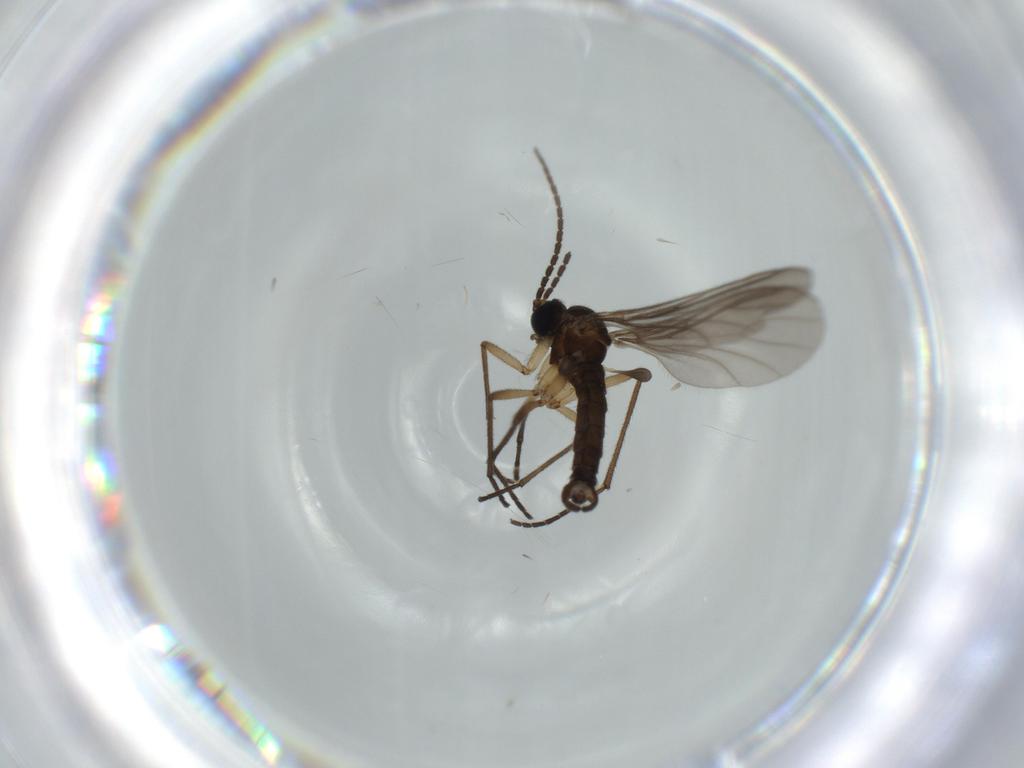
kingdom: Animalia
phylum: Arthropoda
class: Insecta
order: Diptera
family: Sciaridae
